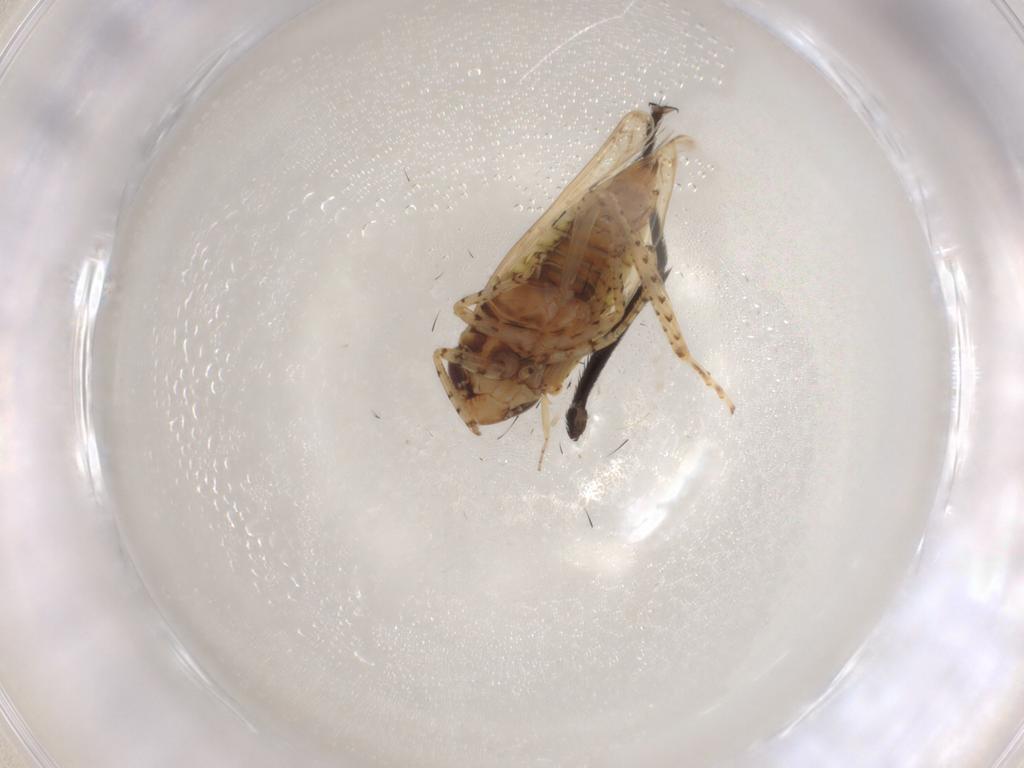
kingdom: Animalia
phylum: Arthropoda
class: Insecta
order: Hemiptera
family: Cicadellidae
